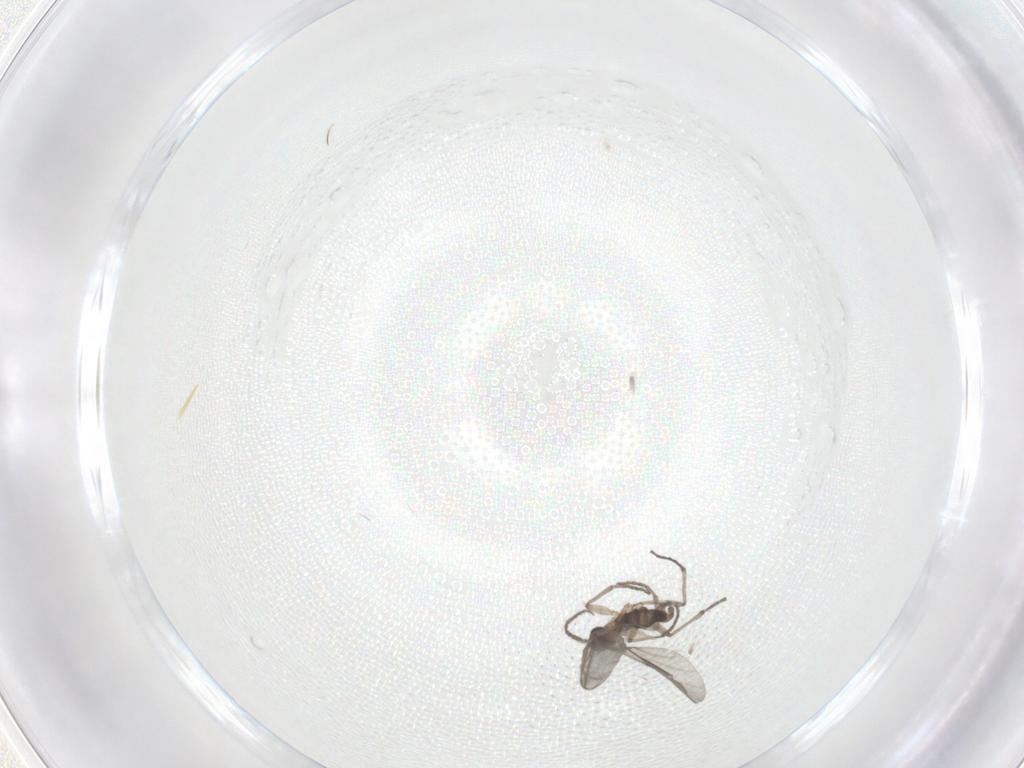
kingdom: Animalia
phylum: Arthropoda
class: Insecta
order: Diptera
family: Sciaridae
